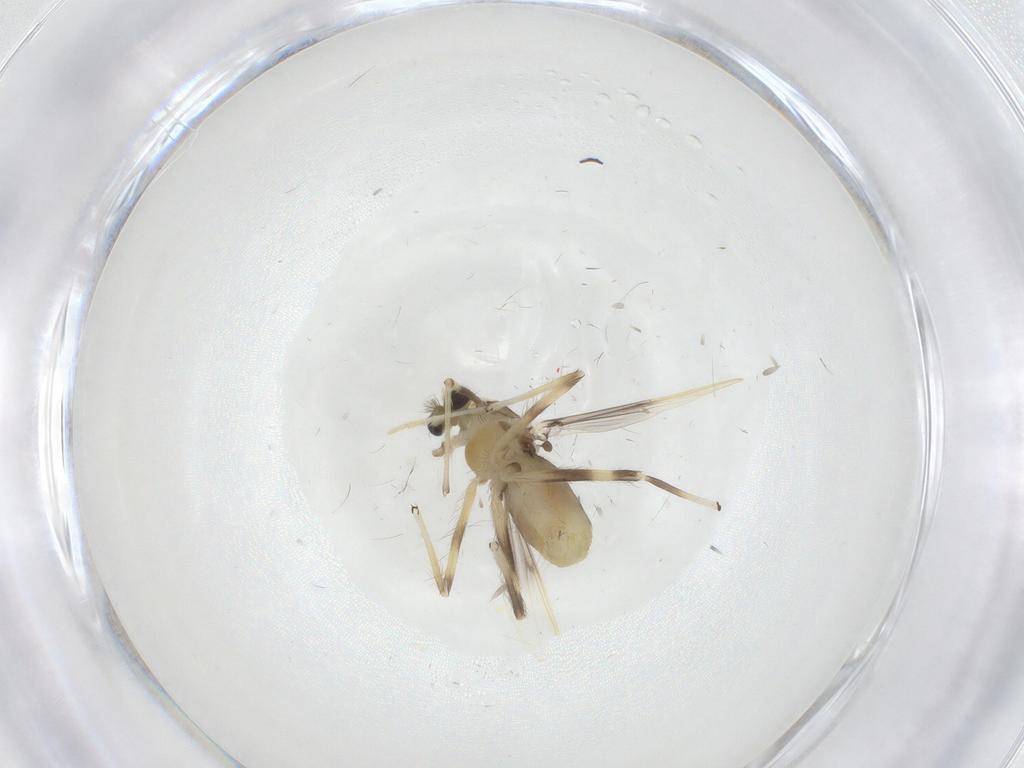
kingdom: Animalia
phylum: Arthropoda
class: Insecta
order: Diptera
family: Chironomidae
